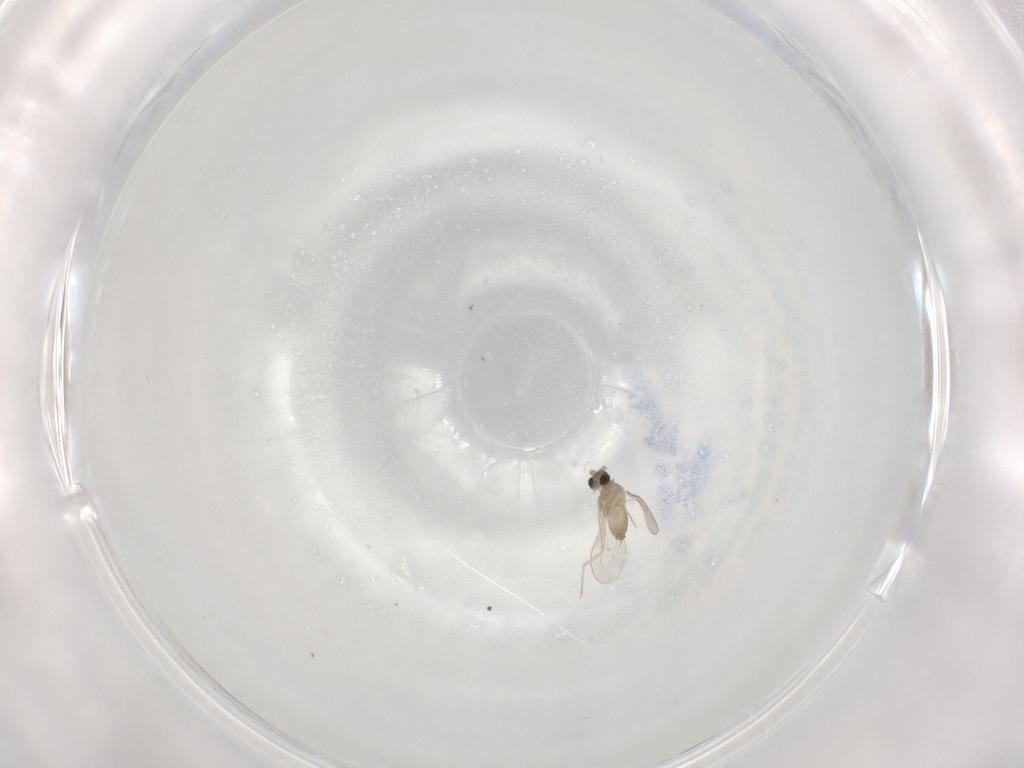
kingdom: Animalia
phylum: Arthropoda
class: Insecta
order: Diptera
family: Cecidomyiidae
